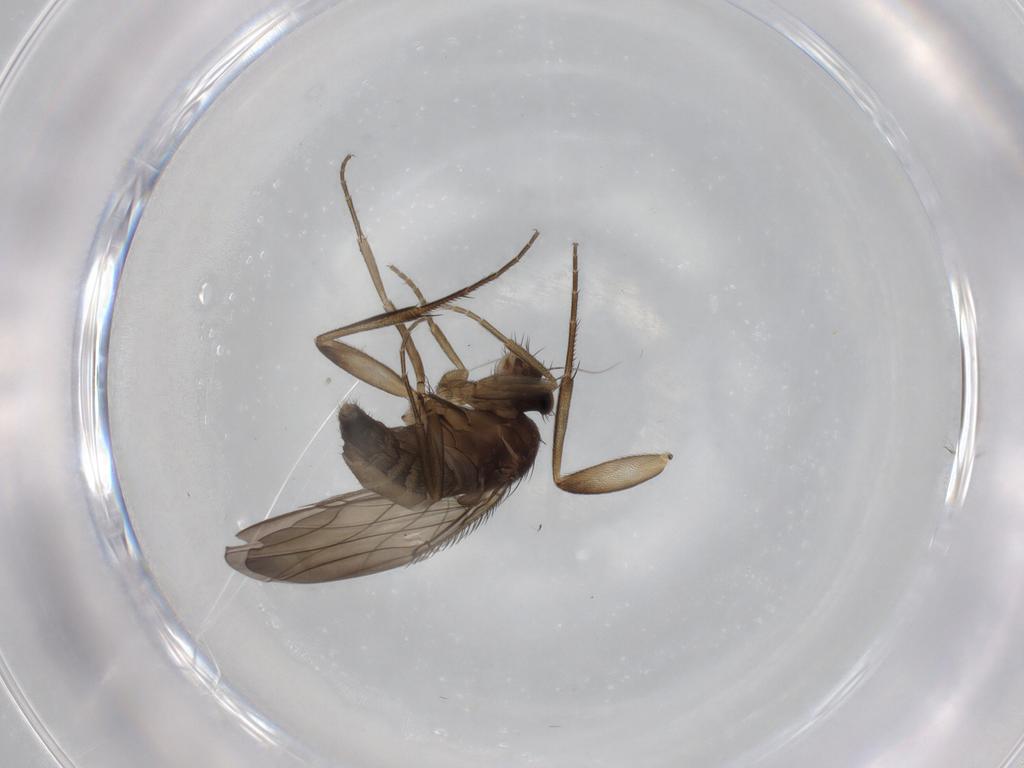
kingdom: Animalia
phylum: Arthropoda
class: Insecta
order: Diptera
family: Phoridae
